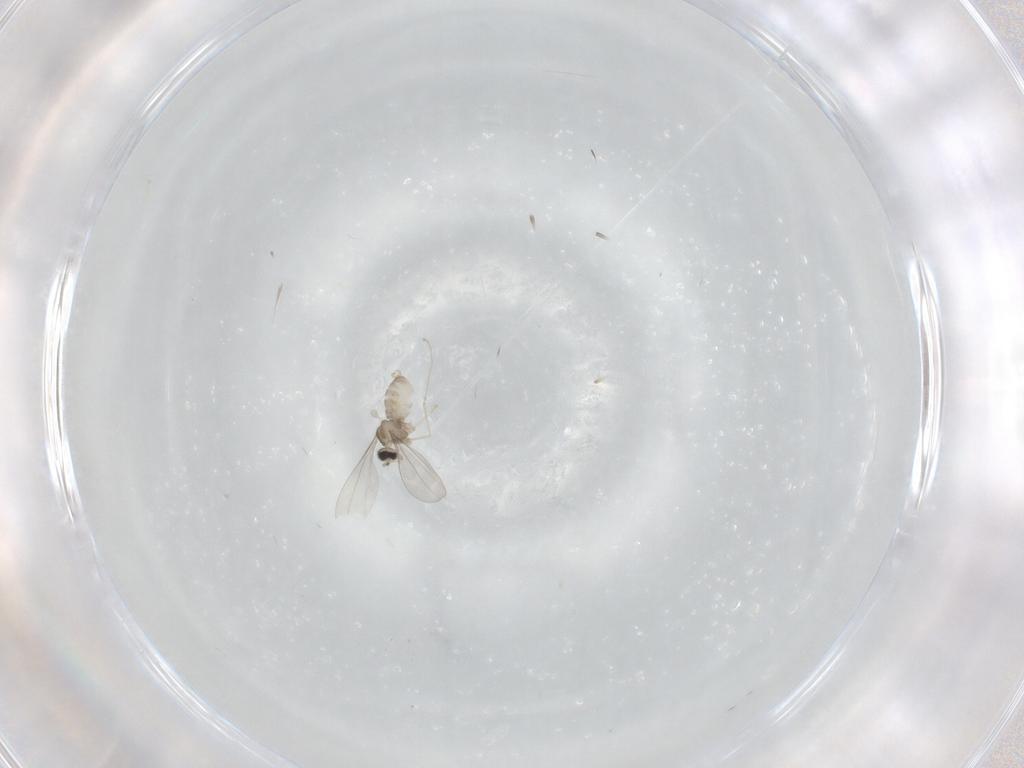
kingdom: Animalia
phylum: Arthropoda
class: Insecta
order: Diptera
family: Cecidomyiidae
